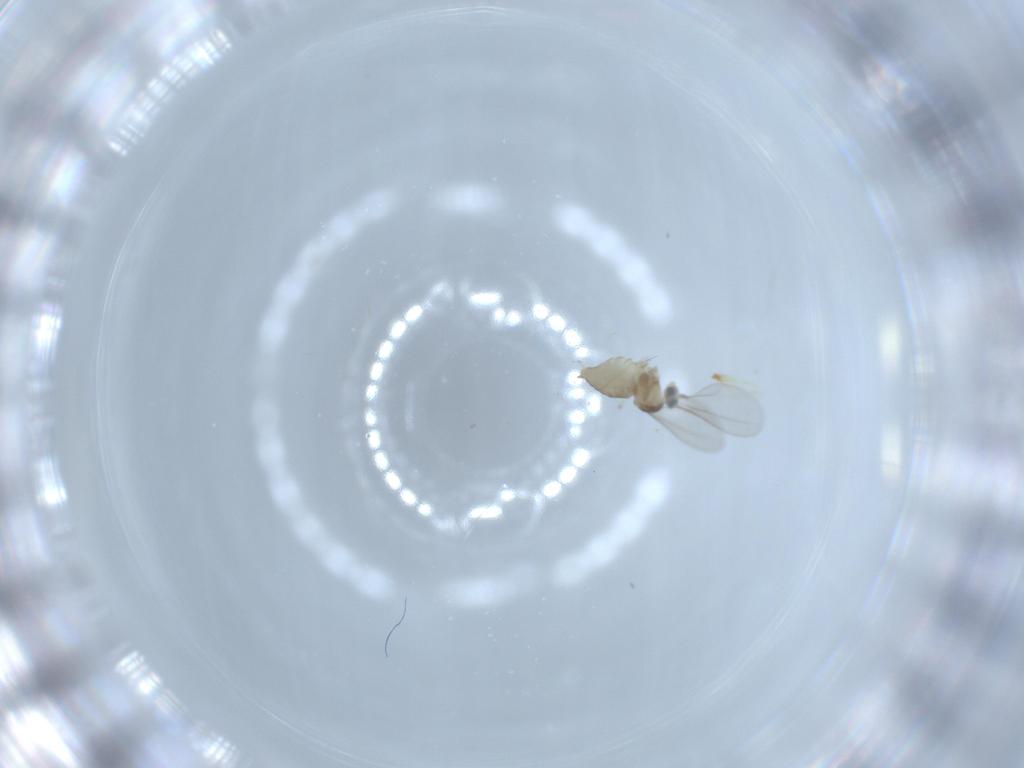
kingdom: Animalia
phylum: Arthropoda
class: Insecta
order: Diptera
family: Cecidomyiidae
